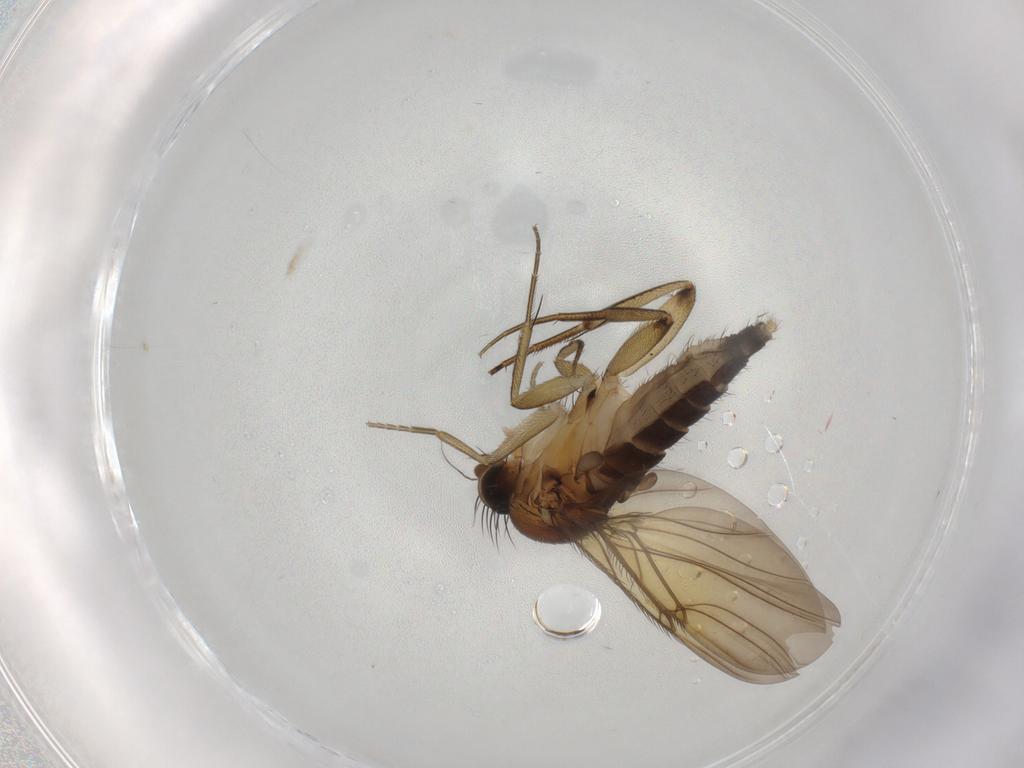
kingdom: Animalia
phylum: Arthropoda
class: Insecta
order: Diptera
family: Phoridae
